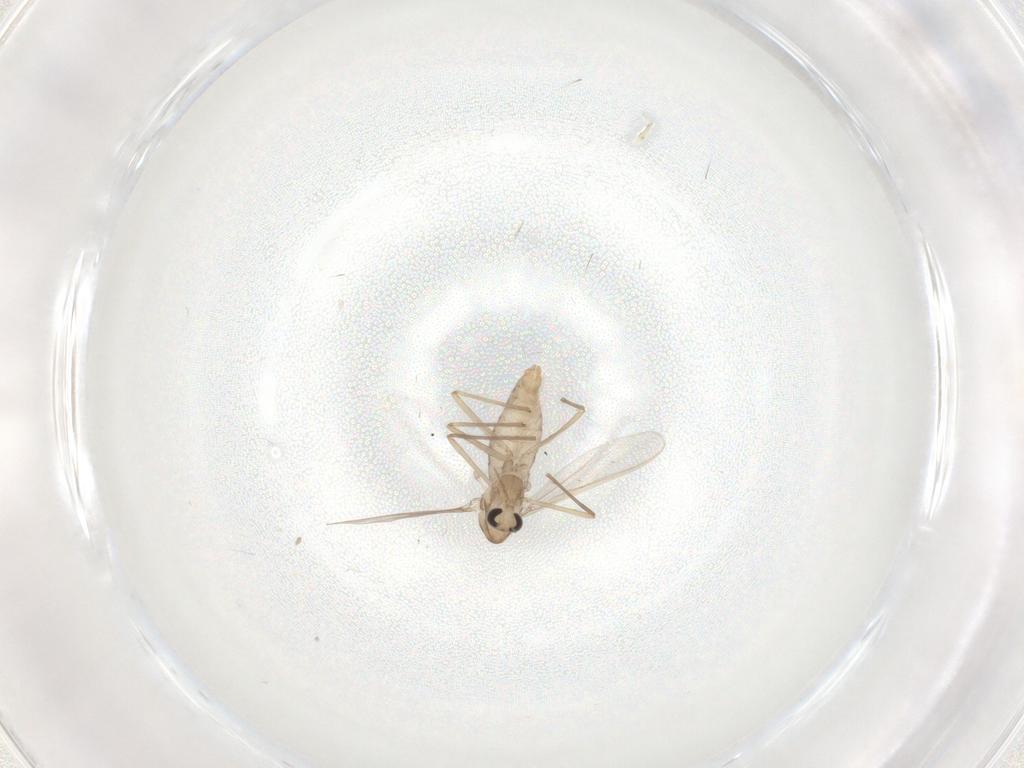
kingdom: Animalia
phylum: Arthropoda
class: Insecta
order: Diptera
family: Chironomidae
